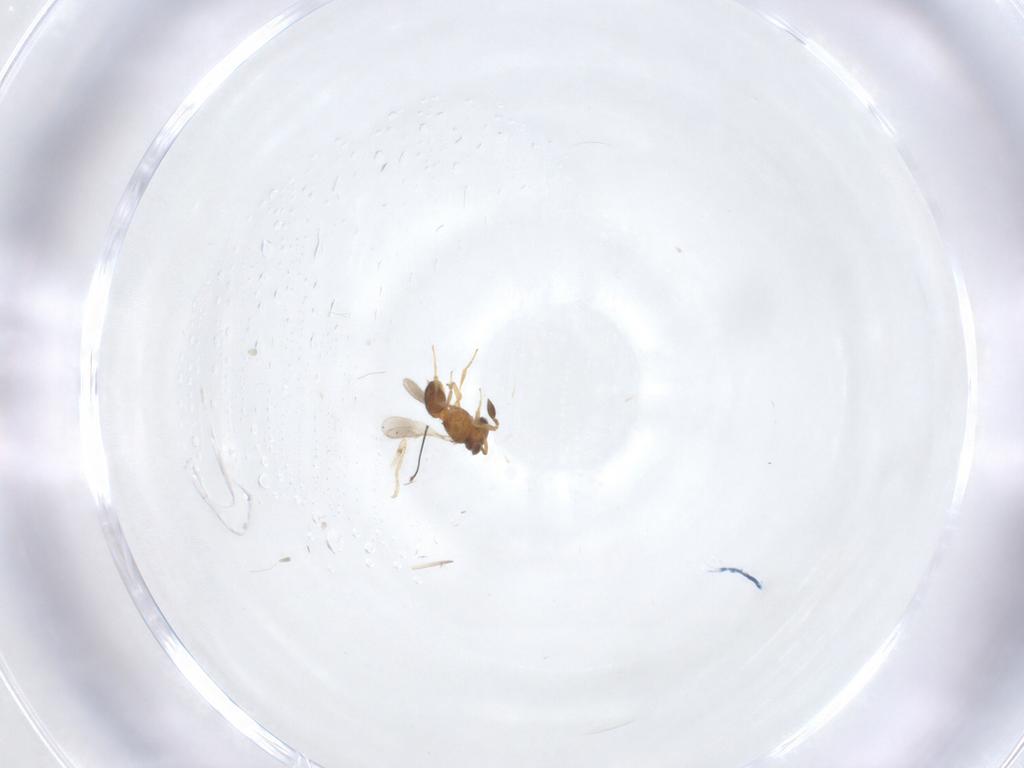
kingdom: Animalia
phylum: Arthropoda
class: Insecta
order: Hymenoptera
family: Scelionidae
